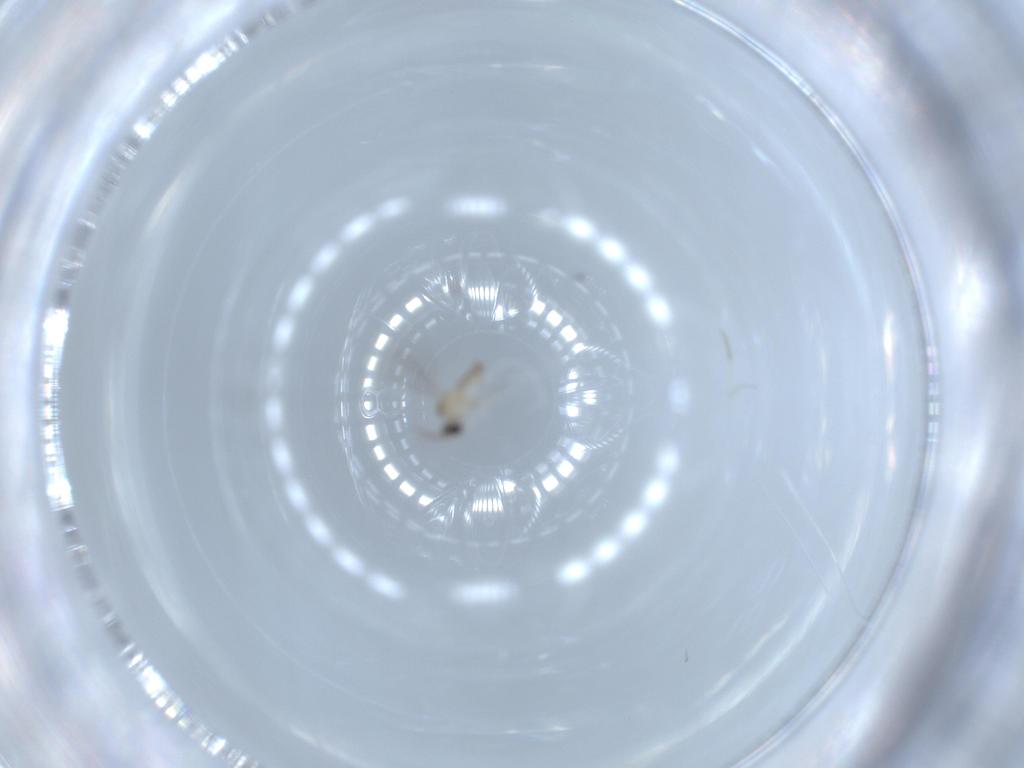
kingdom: Animalia
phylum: Arthropoda
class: Insecta
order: Diptera
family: Cecidomyiidae
